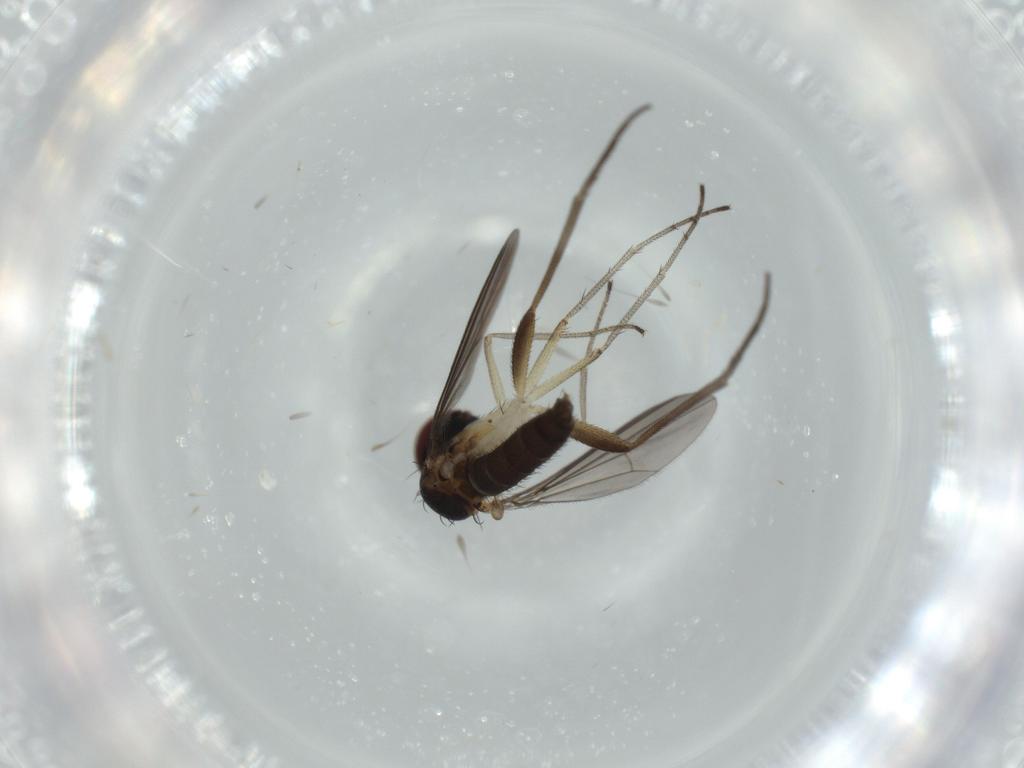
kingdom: Animalia
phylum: Arthropoda
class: Insecta
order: Diptera
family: Dolichopodidae
